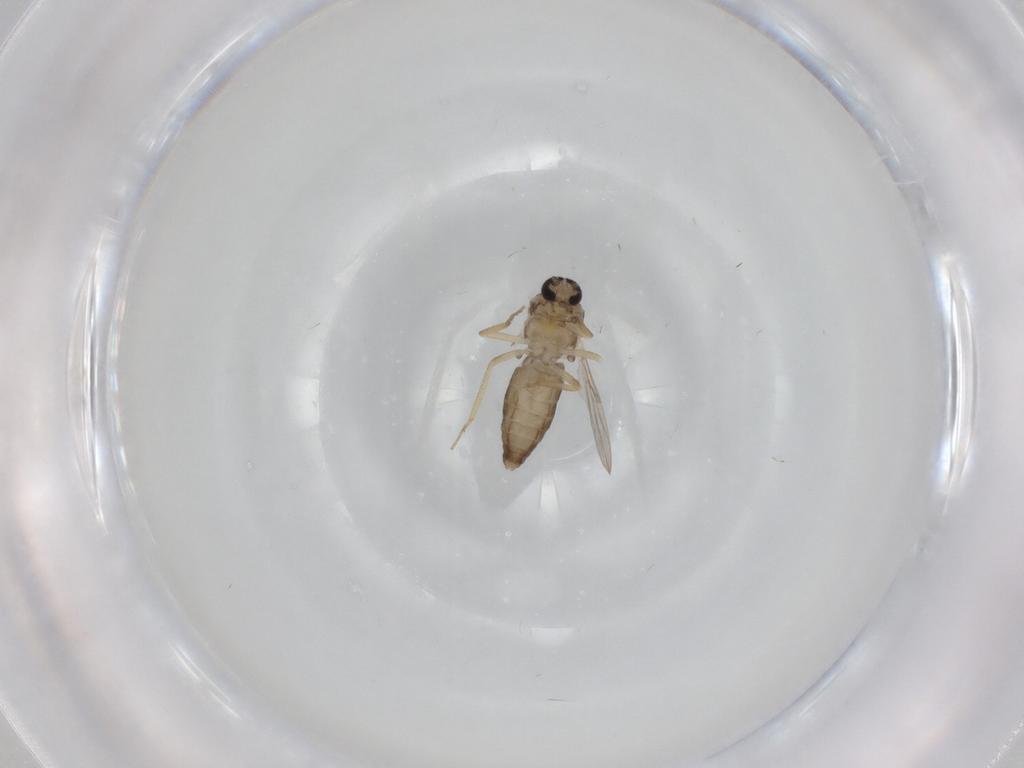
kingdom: Animalia
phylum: Arthropoda
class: Insecta
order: Diptera
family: Ceratopogonidae
